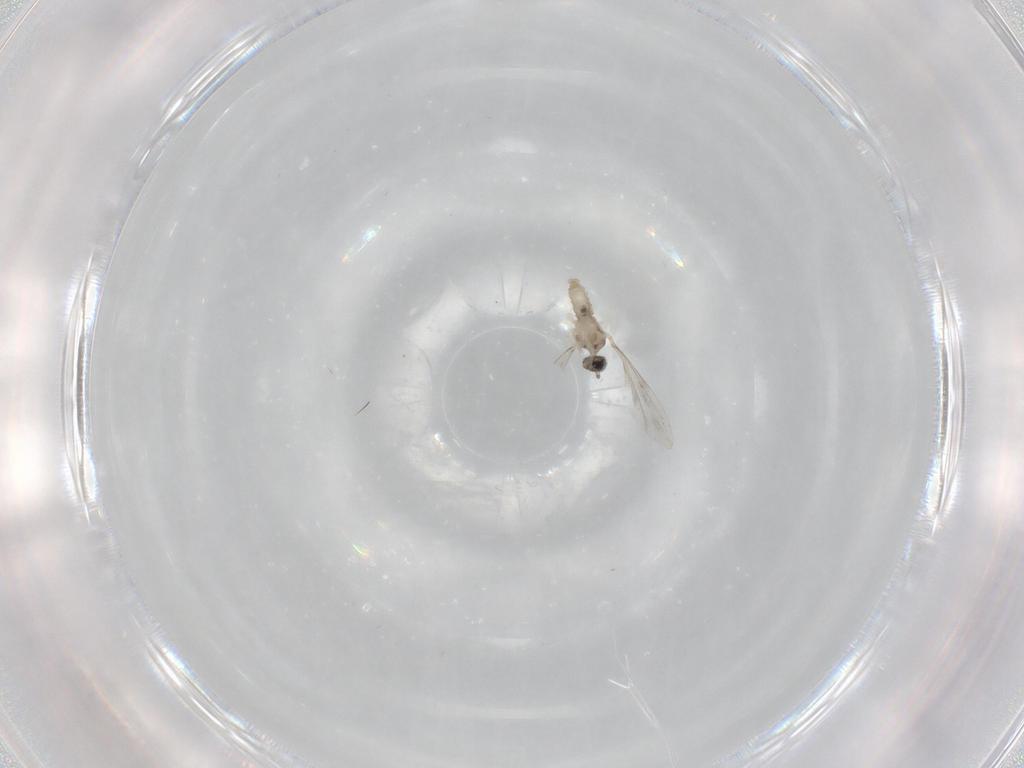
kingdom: Animalia
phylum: Arthropoda
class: Insecta
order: Diptera
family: Cecidomyiidae
